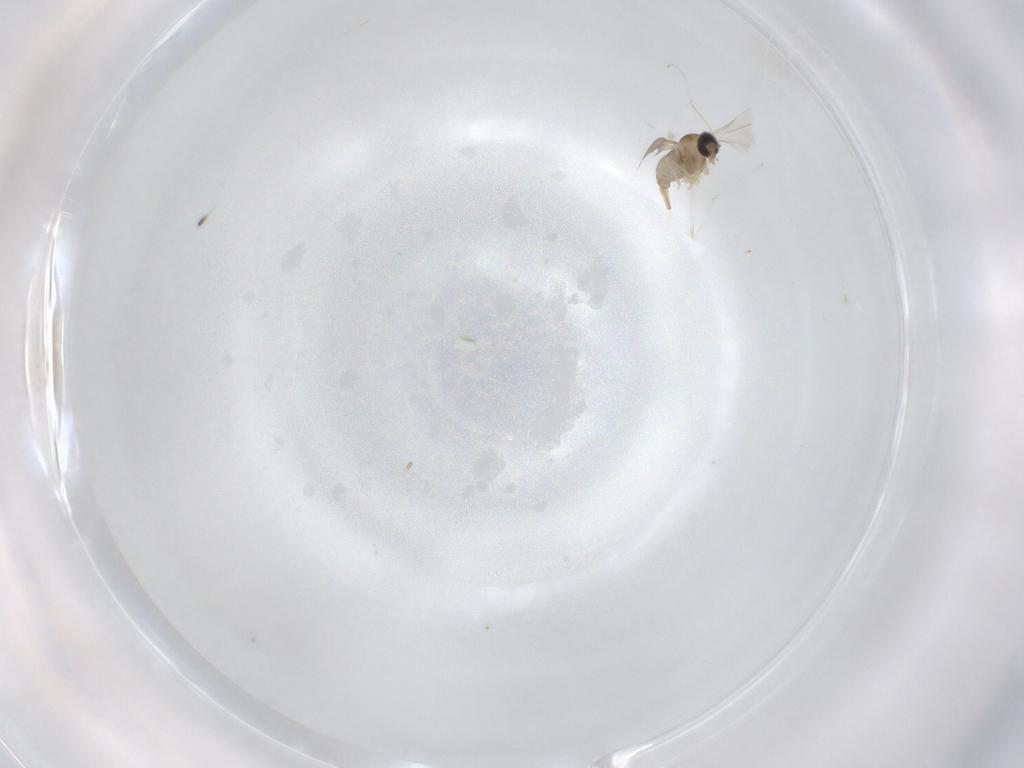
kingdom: Animalia
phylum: Arthropoda
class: Insecta
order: Diptera
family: Cecidomyiidae
